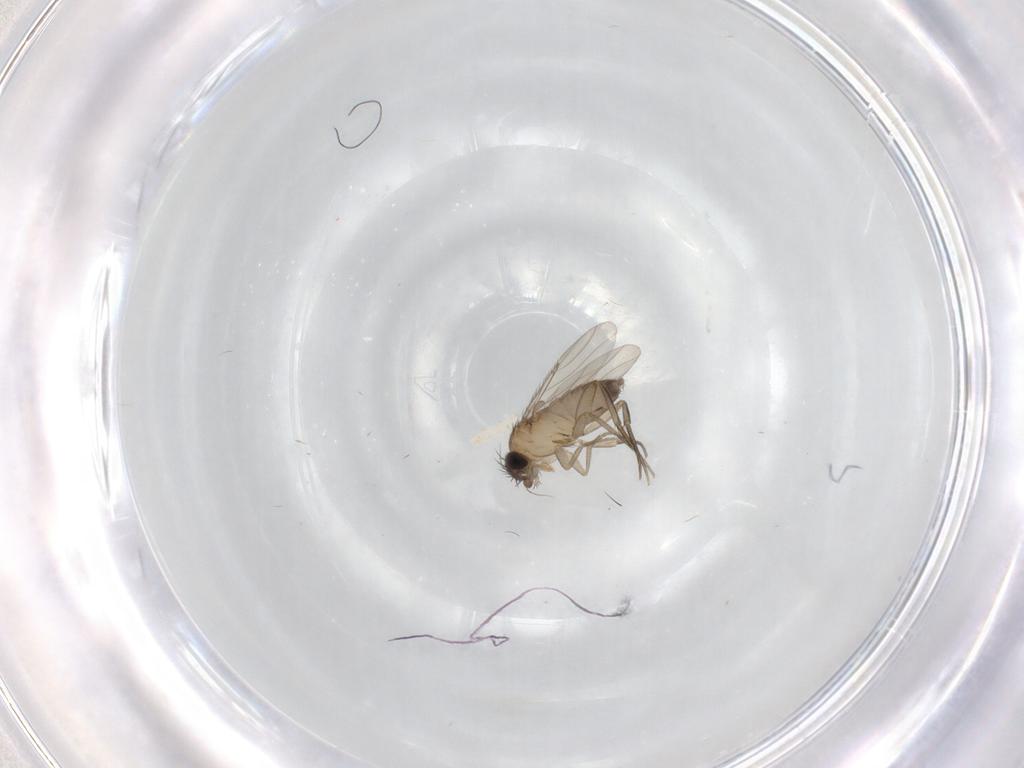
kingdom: Animalia
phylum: Arthropoda
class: Insecta
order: Diptera
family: Phoridae
